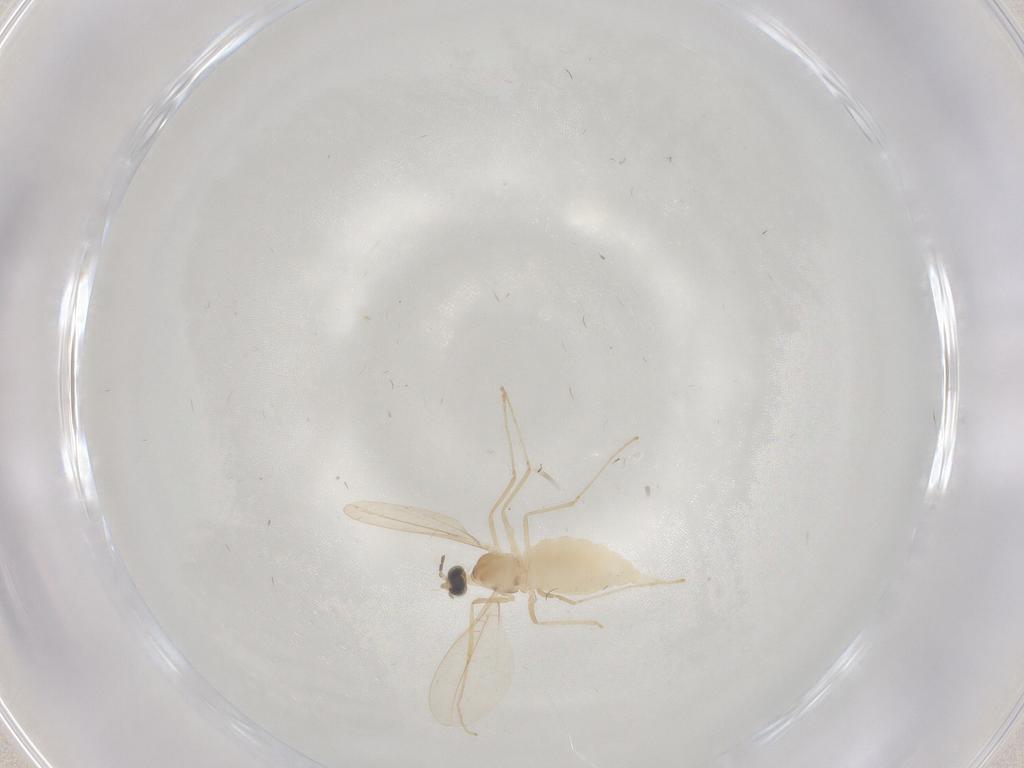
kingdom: Animalia
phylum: Arthropoda
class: Insecta
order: Diptera
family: Cecidomyiidae
